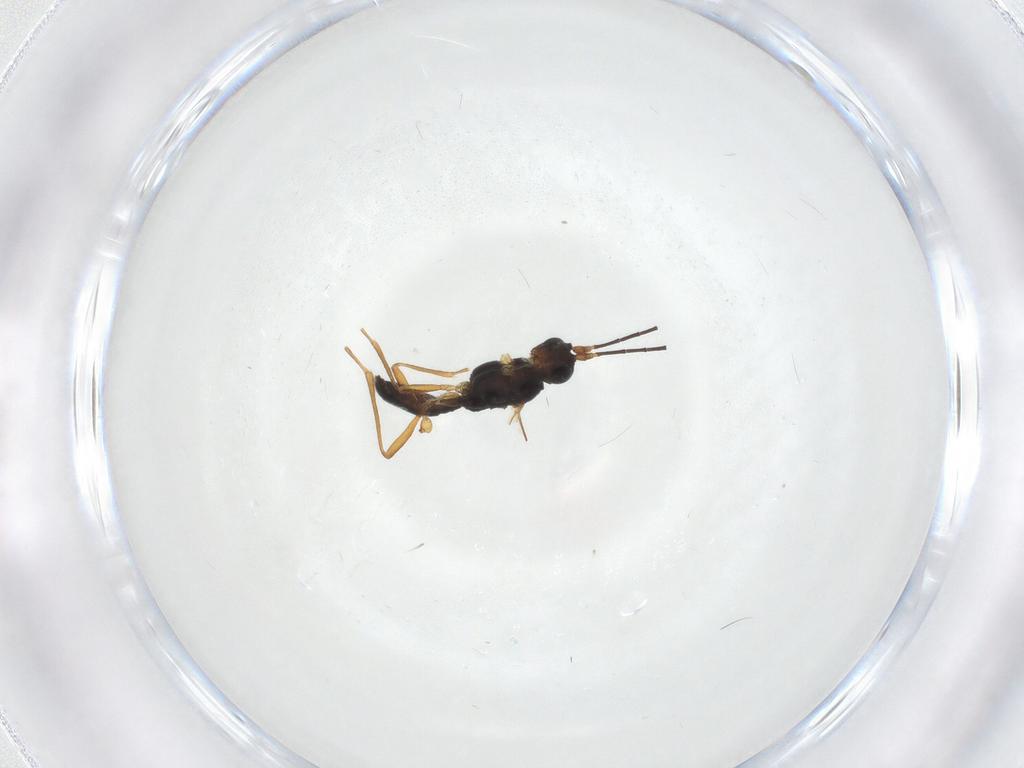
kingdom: Animalia
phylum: Arthropoda
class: Insecta
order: Hymenoptera
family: Braconidae
